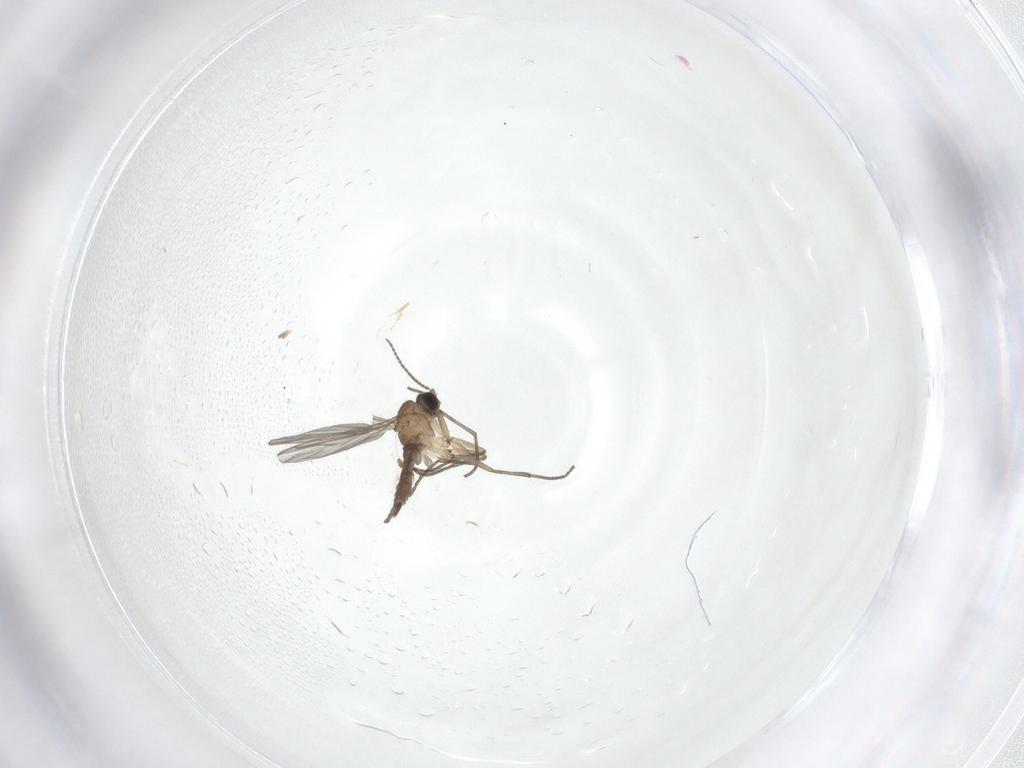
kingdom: Animalia
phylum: Arthropoda
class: Insecta
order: Diptera
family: Sciaridae
